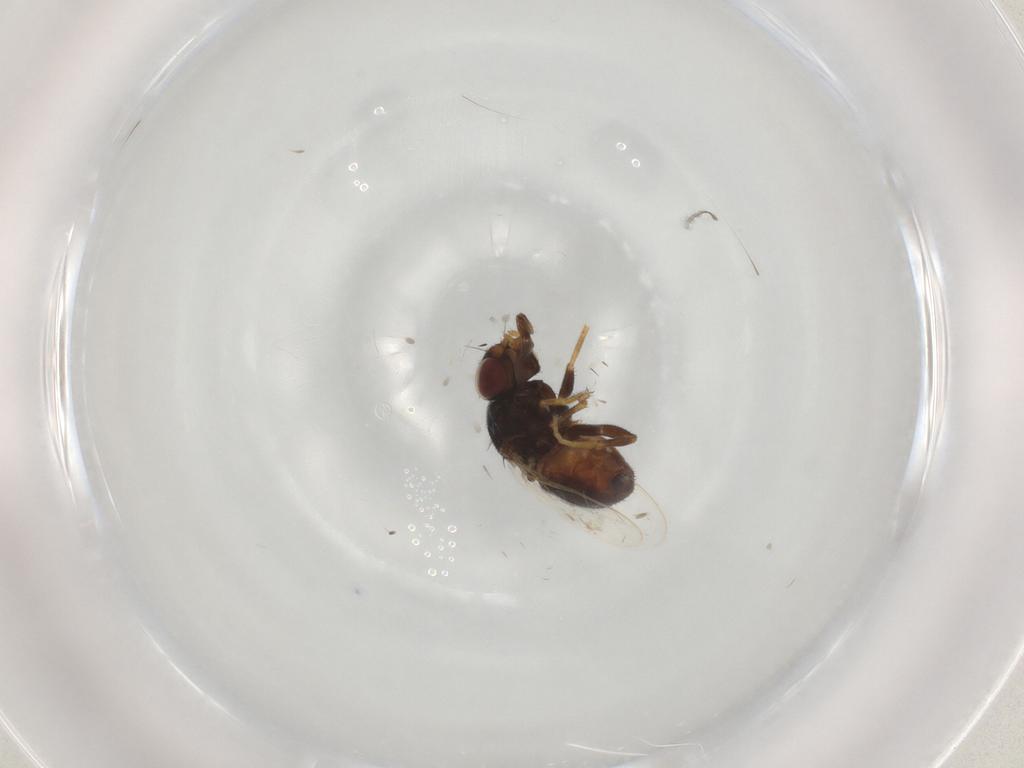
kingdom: Animalia
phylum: Arthropoda
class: Insecta
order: Diptera
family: Chloropidae
